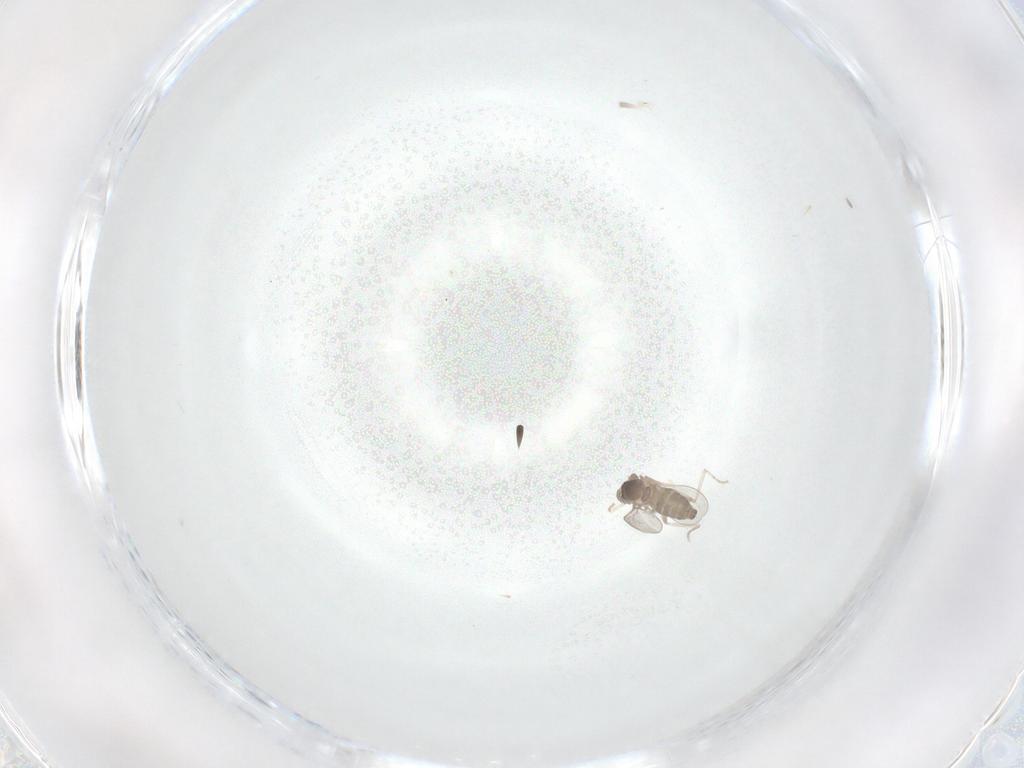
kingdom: Animalia
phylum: Arthropoda
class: Insecta
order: Diptera
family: Cecidomyiidae
